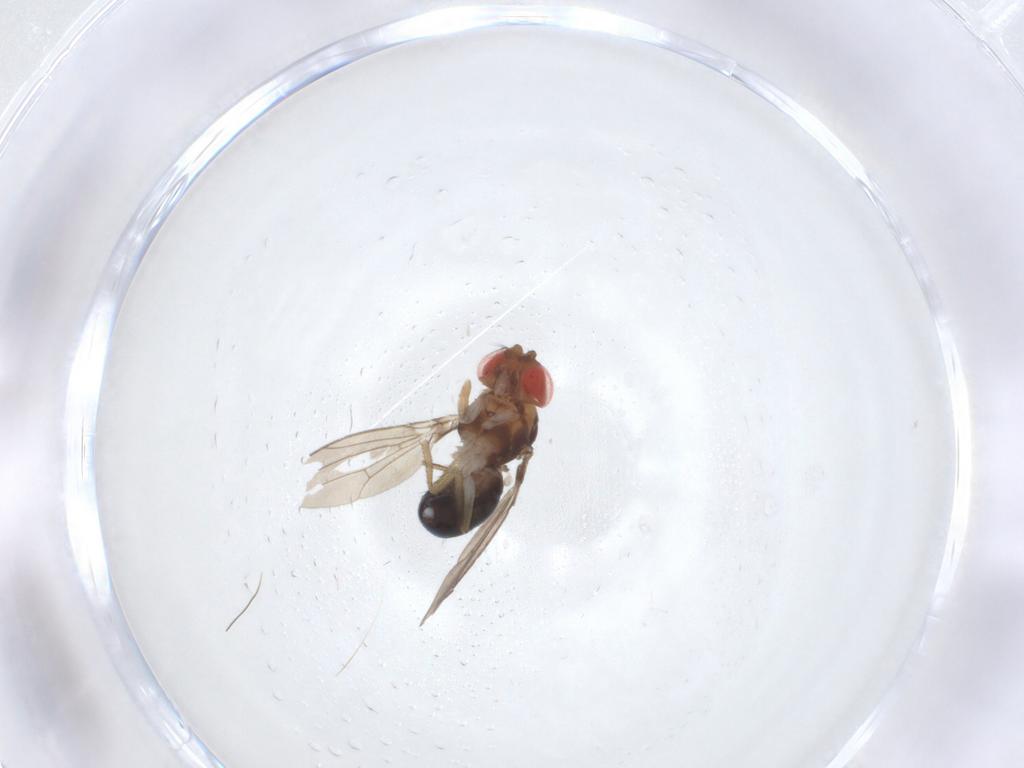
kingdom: Animalia
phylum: Arthropoda
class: Insecta
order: Diptera
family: Drosophilidae
